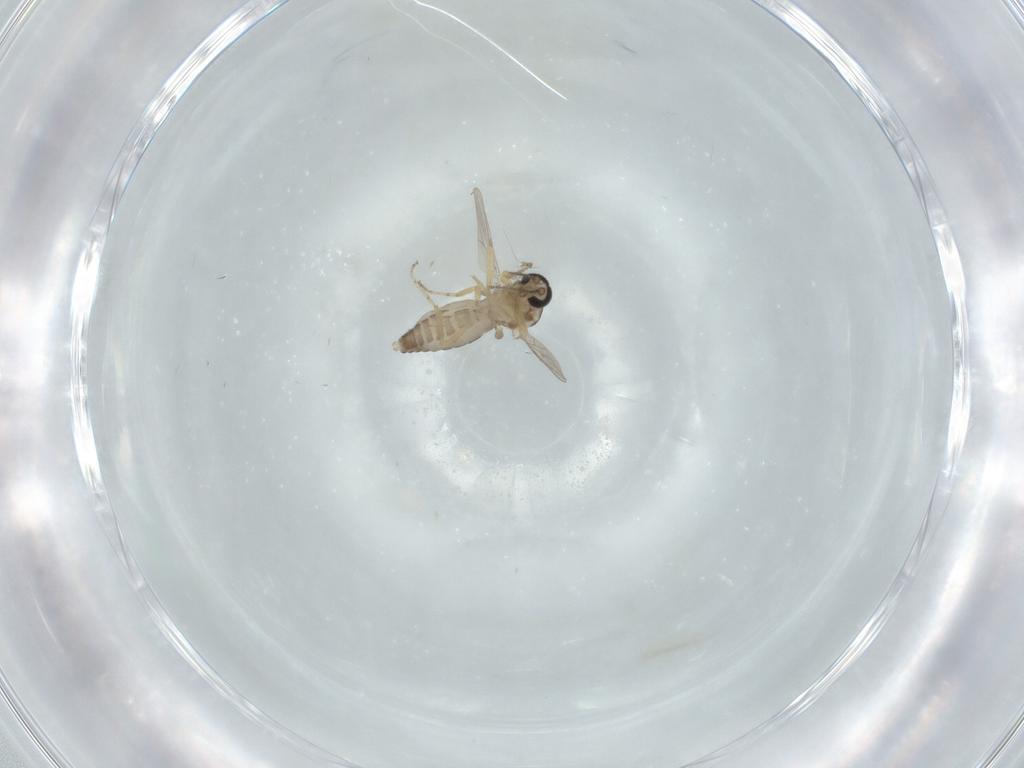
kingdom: Animalia
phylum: Arthropoda
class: Insecta
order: Diptera
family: Ceratopogonidae
